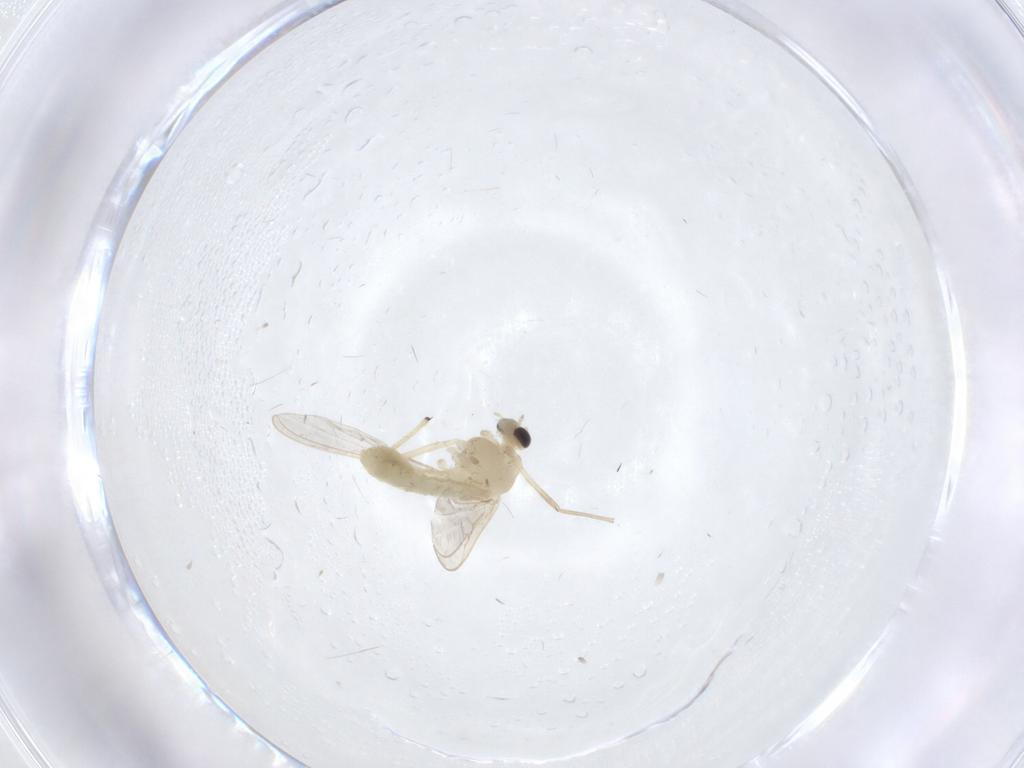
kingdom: Animalia
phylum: Arthropoda
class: Insecta
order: Diptera
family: Chironomidae
